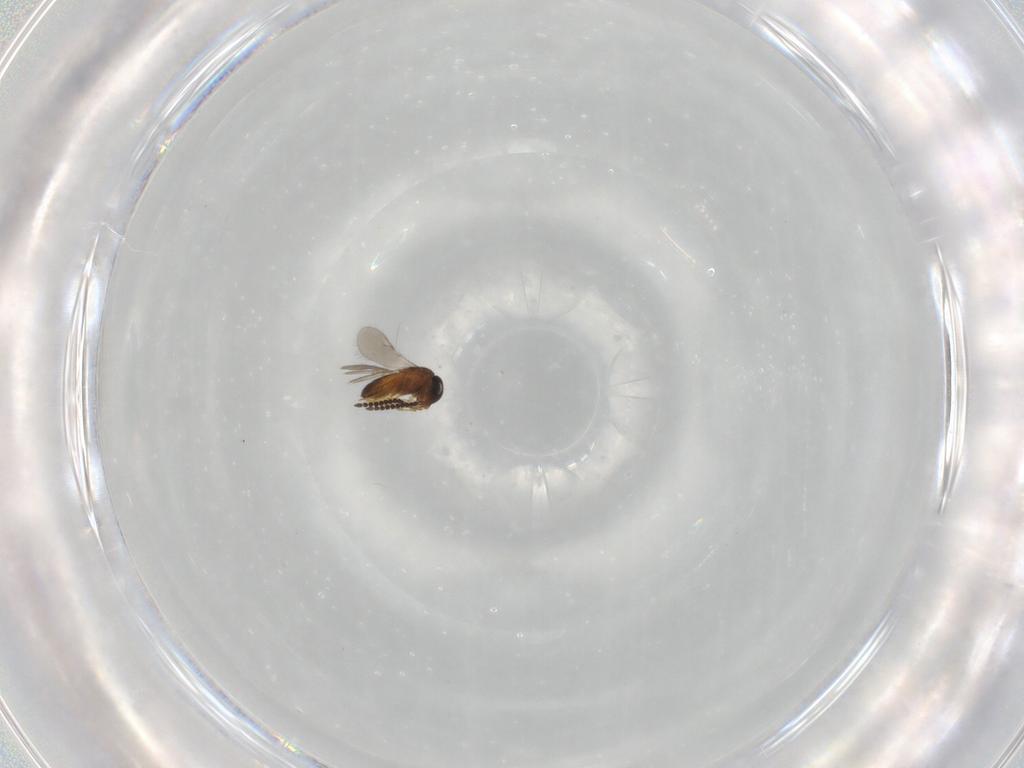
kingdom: Animalia
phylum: Arthropoda
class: Insecta
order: Hymenoptera
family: Scelionidae
